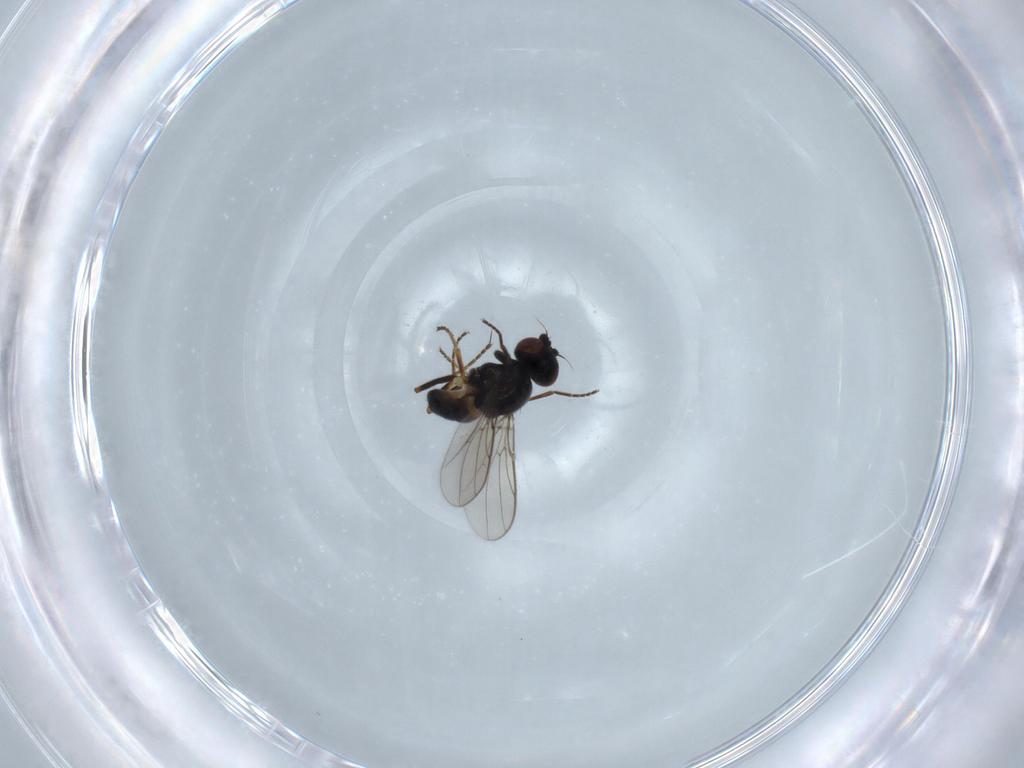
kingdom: Animalia
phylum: Arthropoda
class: Insecta
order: Diptera
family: Chloropidae
